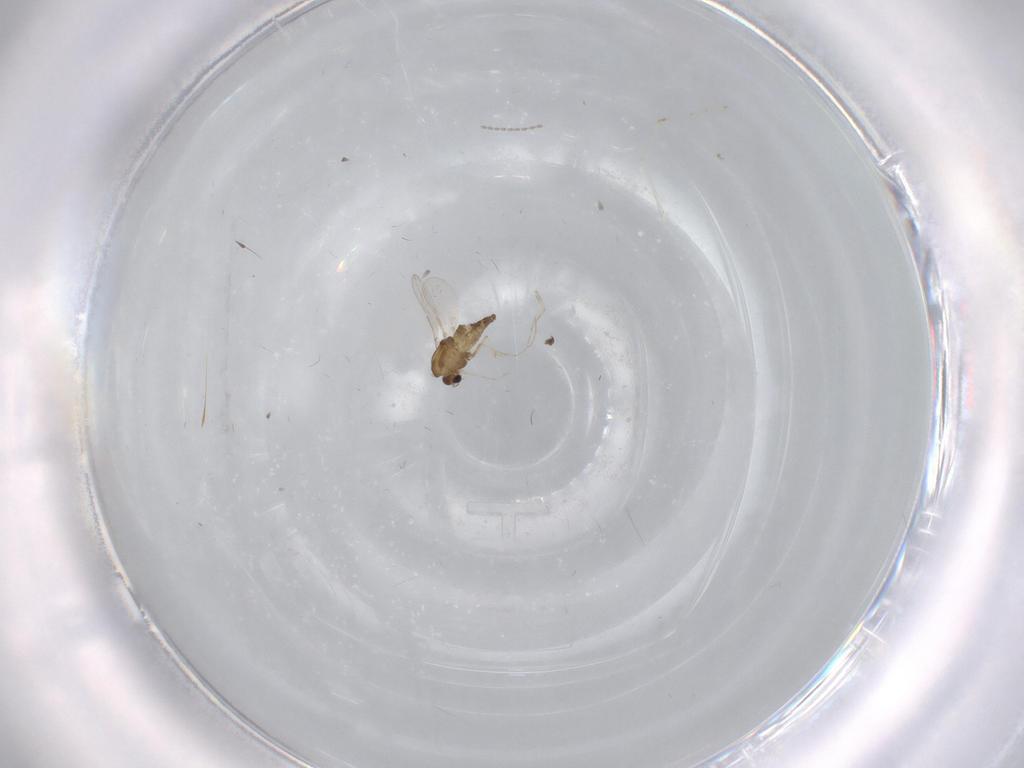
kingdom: Animalia
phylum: Arthropoda
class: Insecta
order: Diptera
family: Chironomidae
